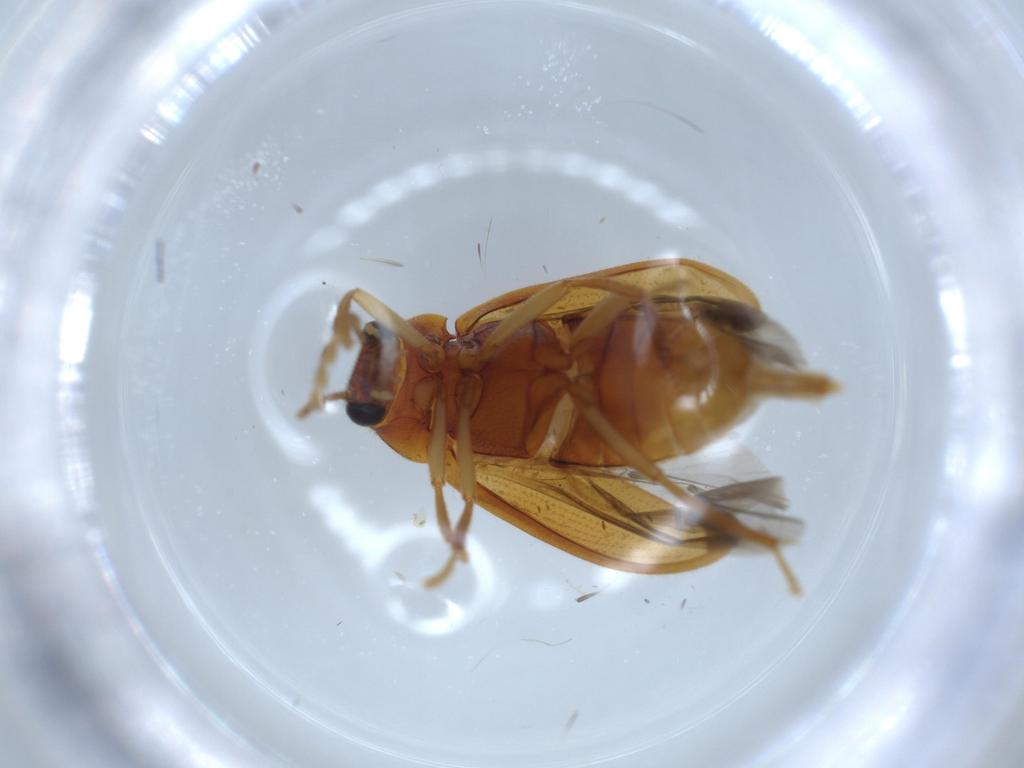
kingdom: Animalia
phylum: Arthropoda
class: Insecta
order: Coleoptera
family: Ptilodactylidae
